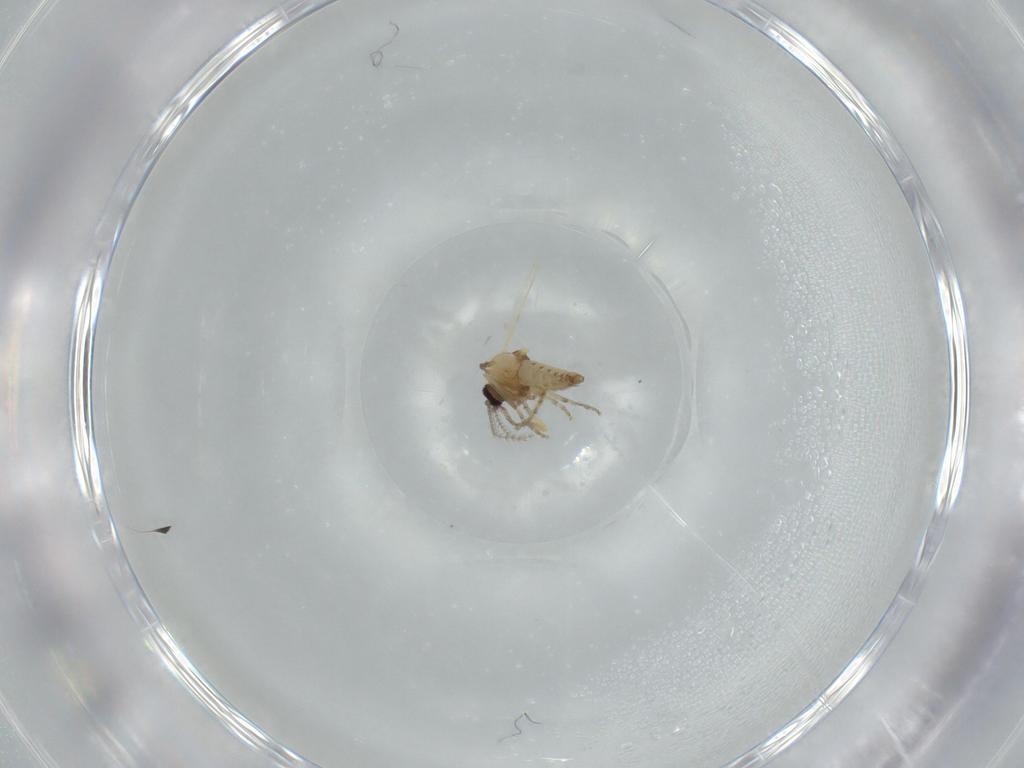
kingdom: Animalia
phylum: Arthropoda
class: Insecta
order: Diptera
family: Ceratopogonidae
